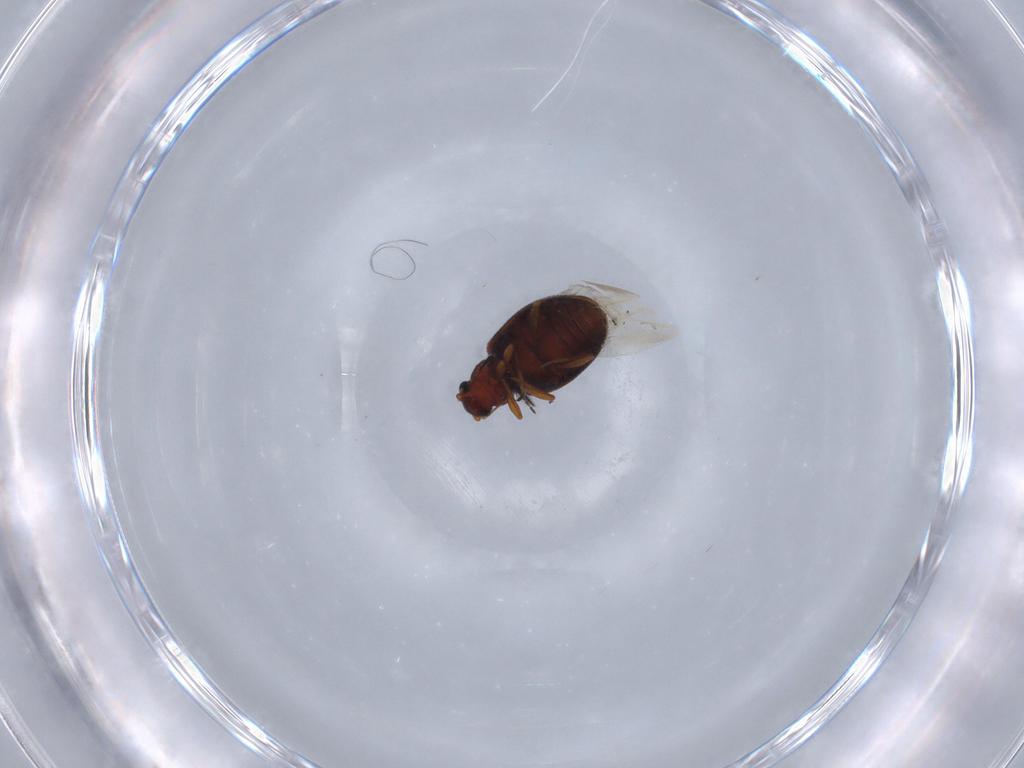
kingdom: Animalia
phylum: Arthropoda
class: Insecta
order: Coleoptera
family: Latridiidae
